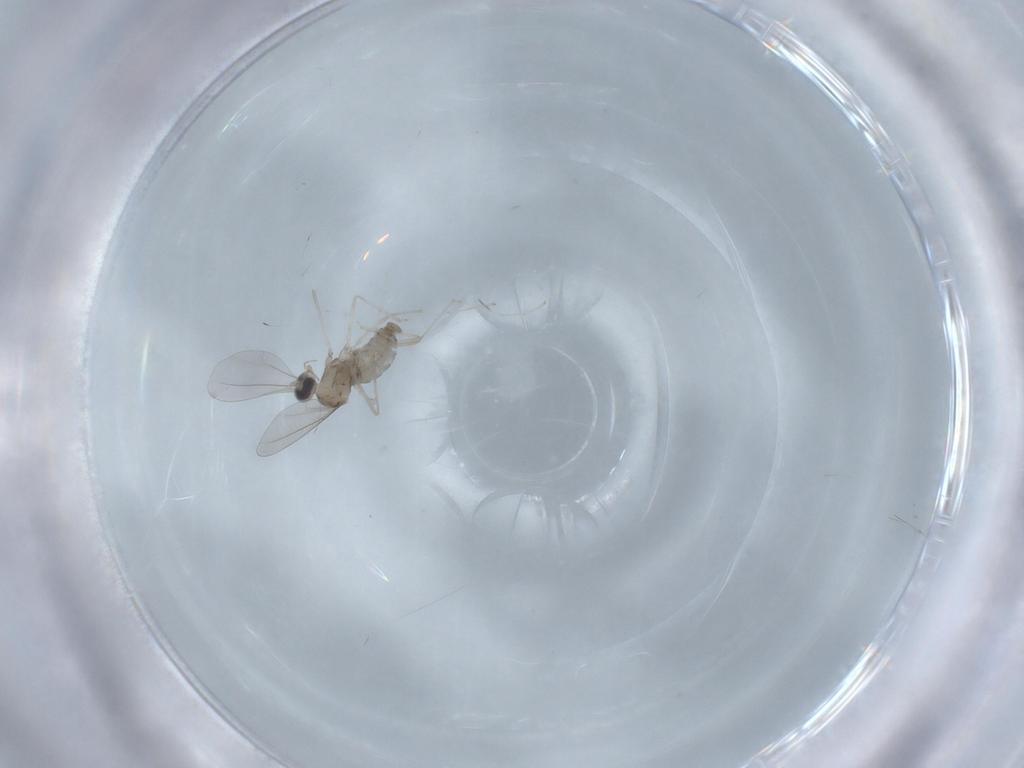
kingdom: Animalia
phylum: Arthropoda
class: Insecta
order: Diptera
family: Cecidomyiidae
